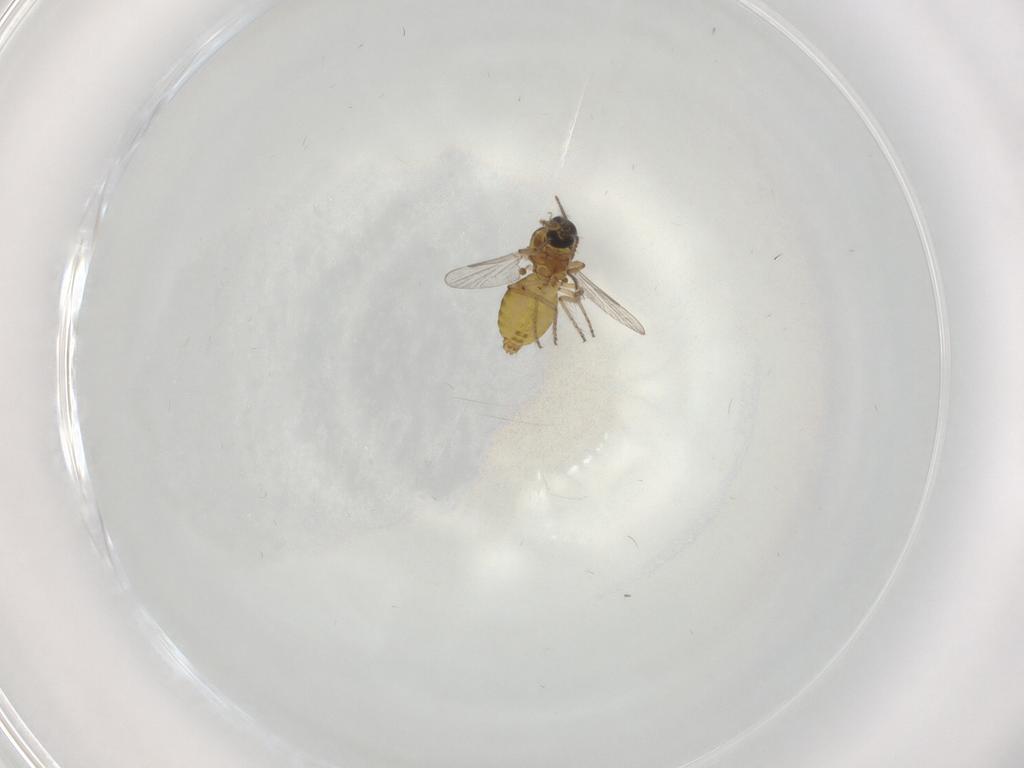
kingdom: Animalia
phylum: Arthropoda
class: Insecta
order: Diptera
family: Ceratopogonidae
